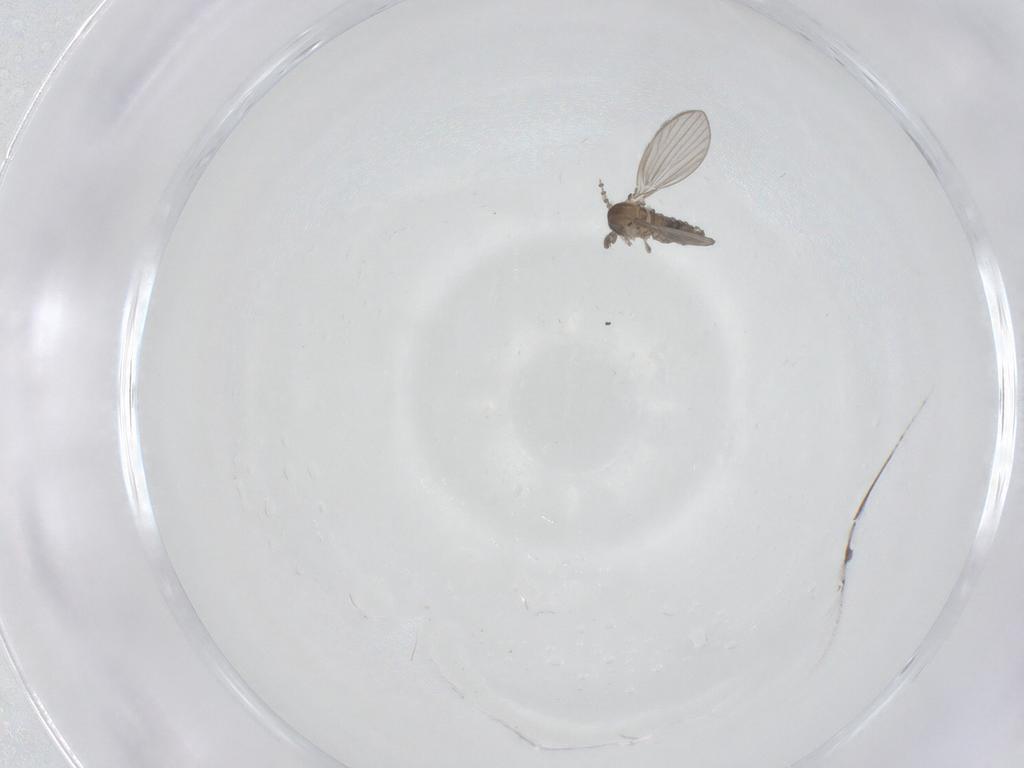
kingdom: Animalia
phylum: Arthropoda
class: Insecta
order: Diptera
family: Psychodidae
